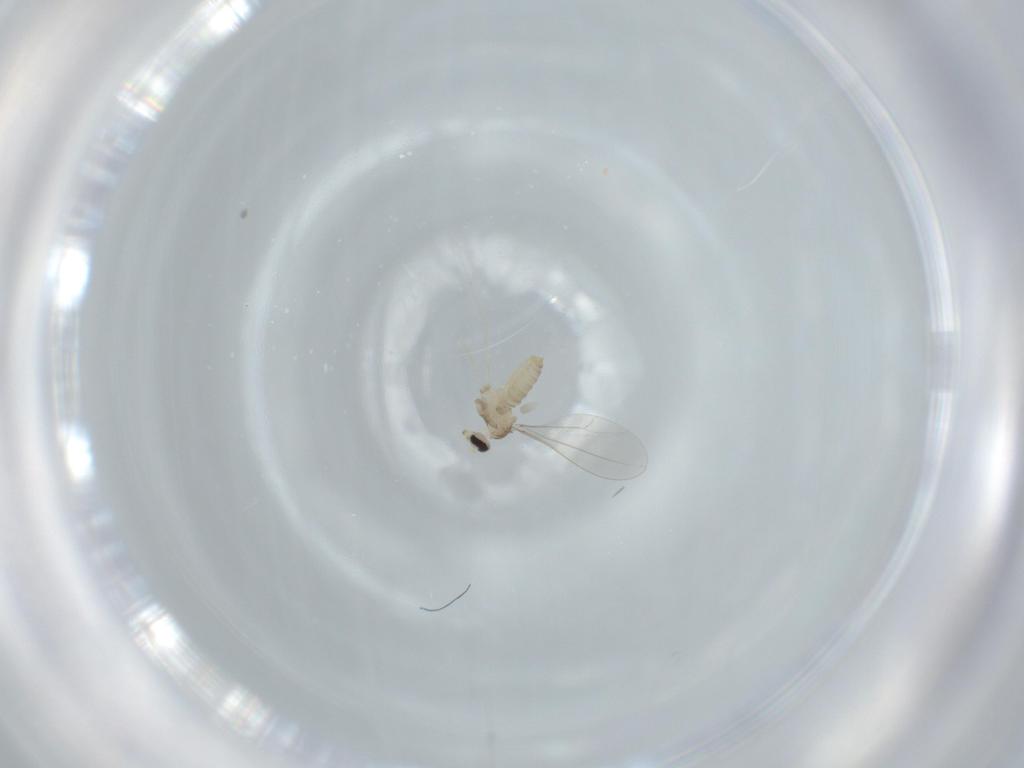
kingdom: Animalia
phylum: Arthropoda
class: Insecta
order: Diptera
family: Cecidomyiidae
